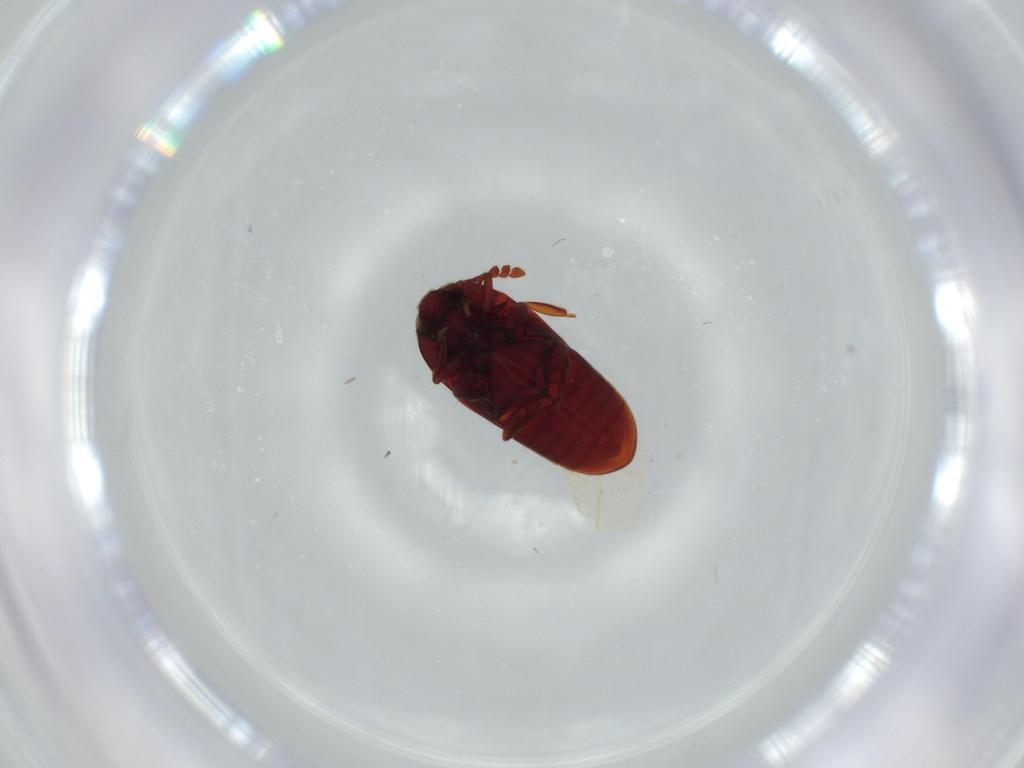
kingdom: Animalia
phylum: Arthropoda
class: Insecta
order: Coleoptera
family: Throscidae
